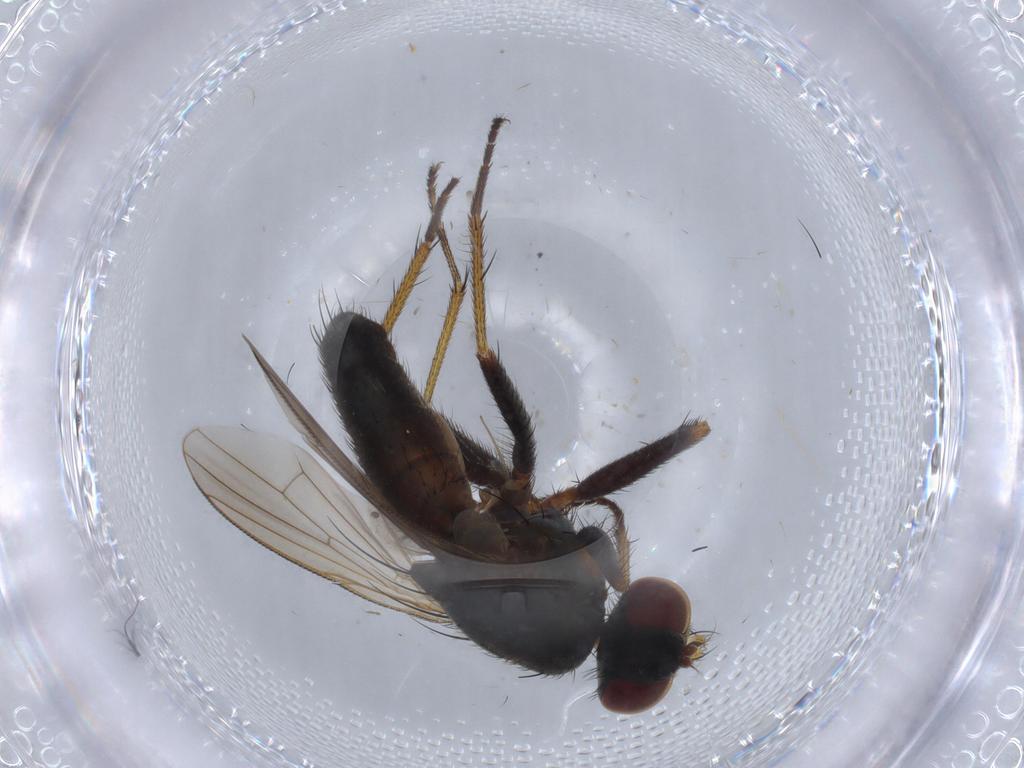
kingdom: Animalia
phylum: Arthropoda
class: Insecta
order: Diptera
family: Muscidae
